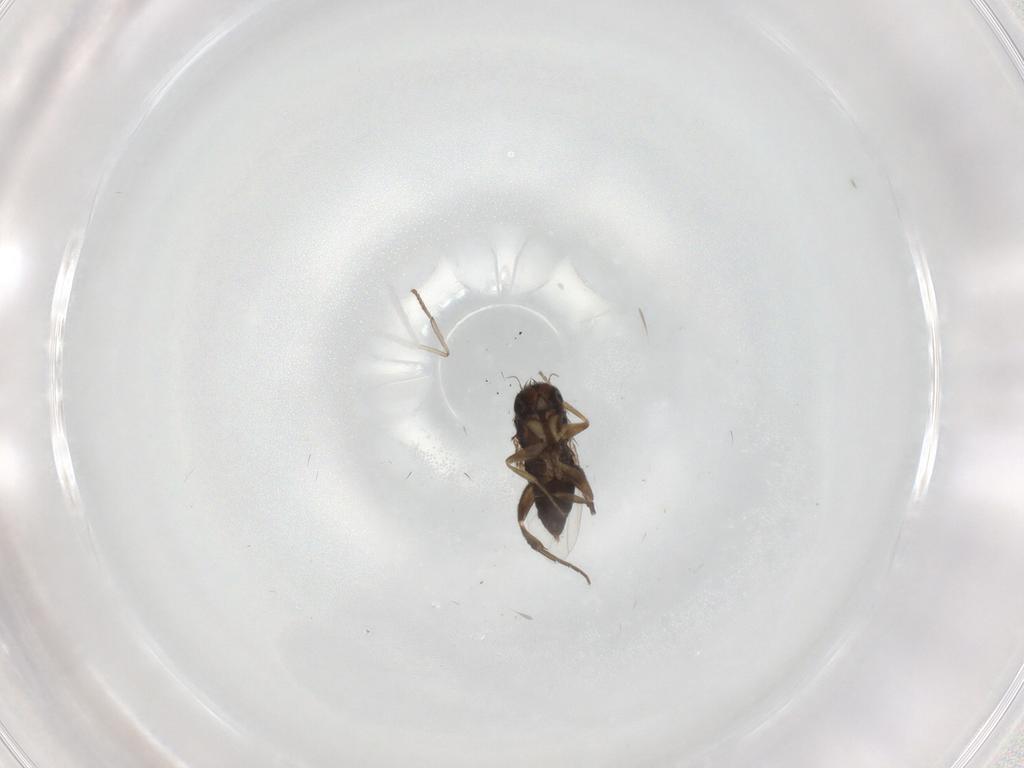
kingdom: Animalia
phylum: Arthropoda
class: Insecta
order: Diptera
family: Phoridae
